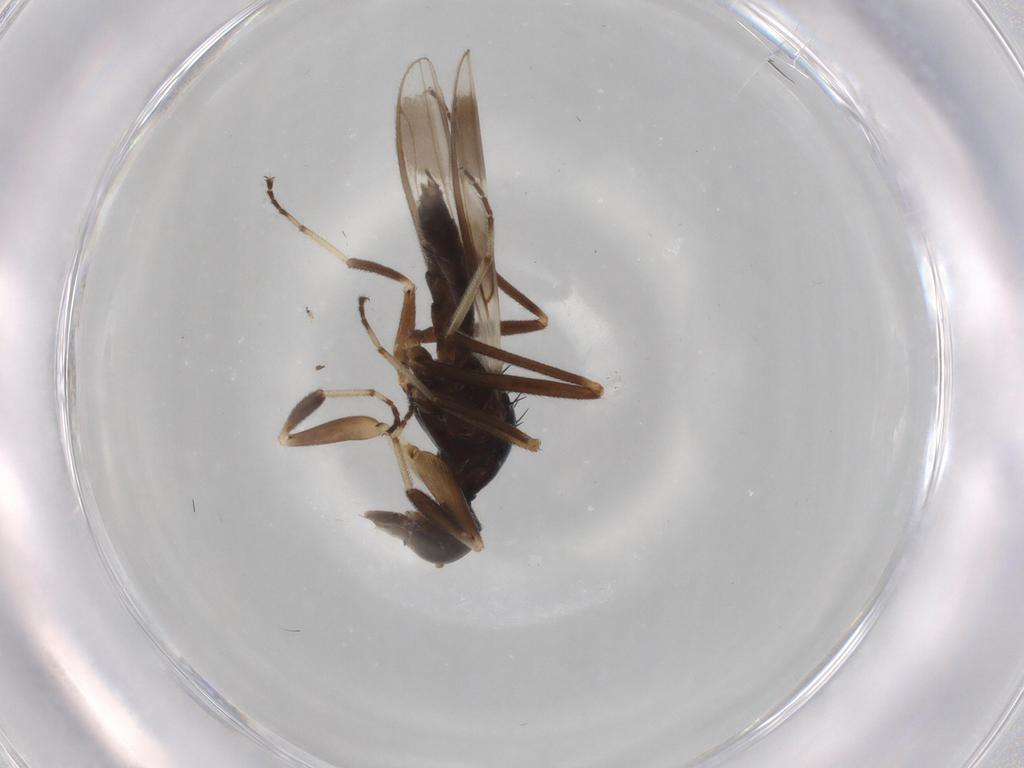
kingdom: Animalia
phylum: Arthropoda
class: Insecta
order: Diptera
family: Hybotidae
